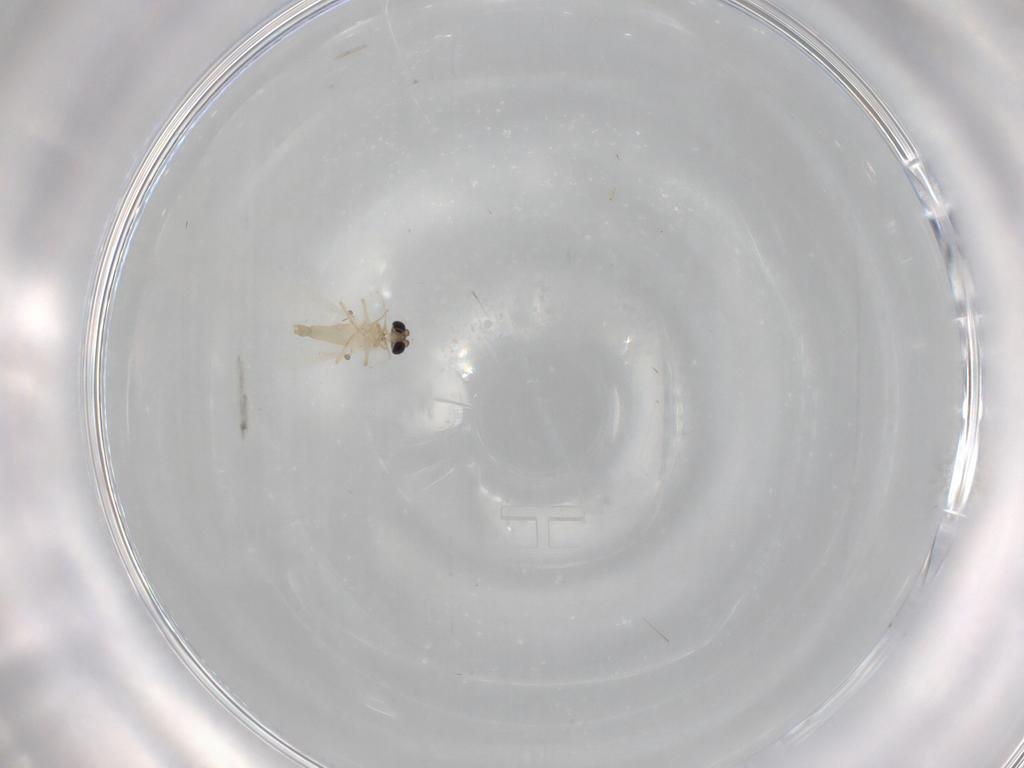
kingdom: Animalia
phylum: Arthropoda
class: Insecta
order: Diptera
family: Chironomidae
